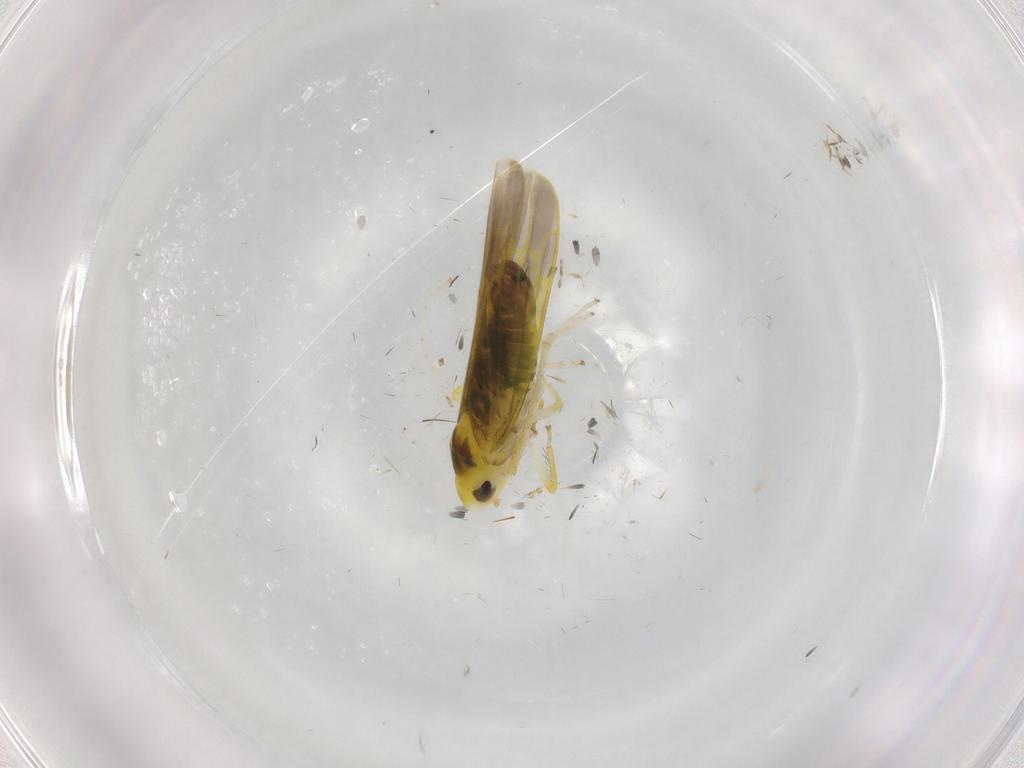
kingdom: Animalia
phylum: Arthropoda
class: Insecta
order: Hemiptera
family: Cicadellidae
